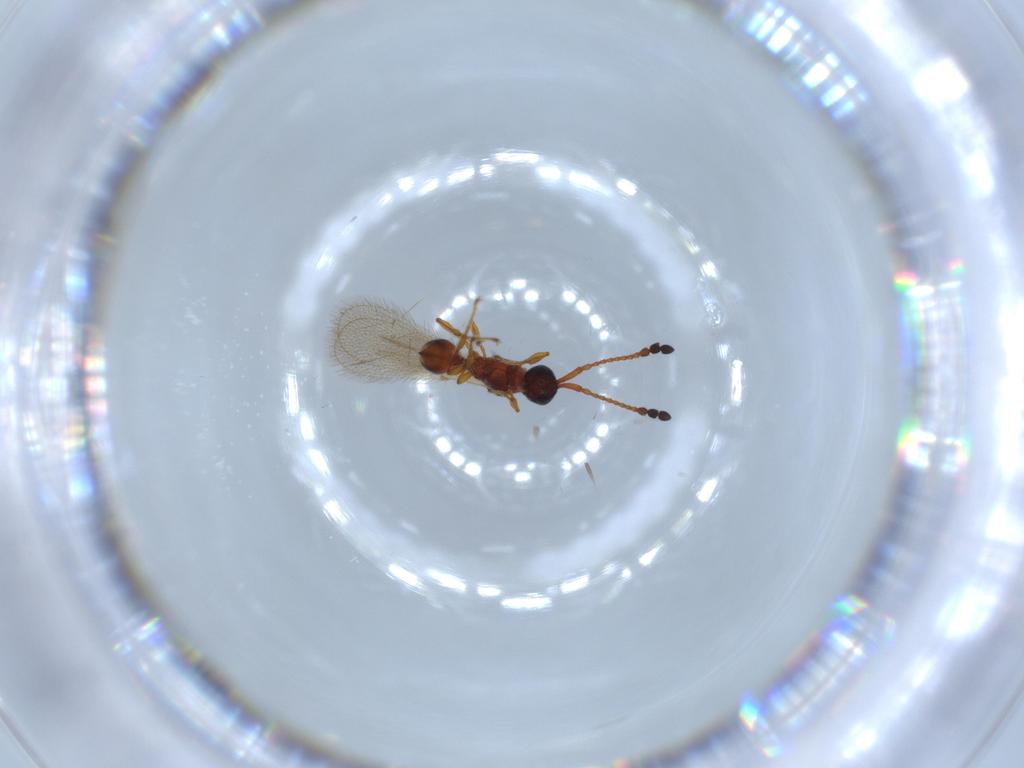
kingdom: Animalia
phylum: Arthropoda
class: Insecta
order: Hymenoptera
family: Diapriidae
